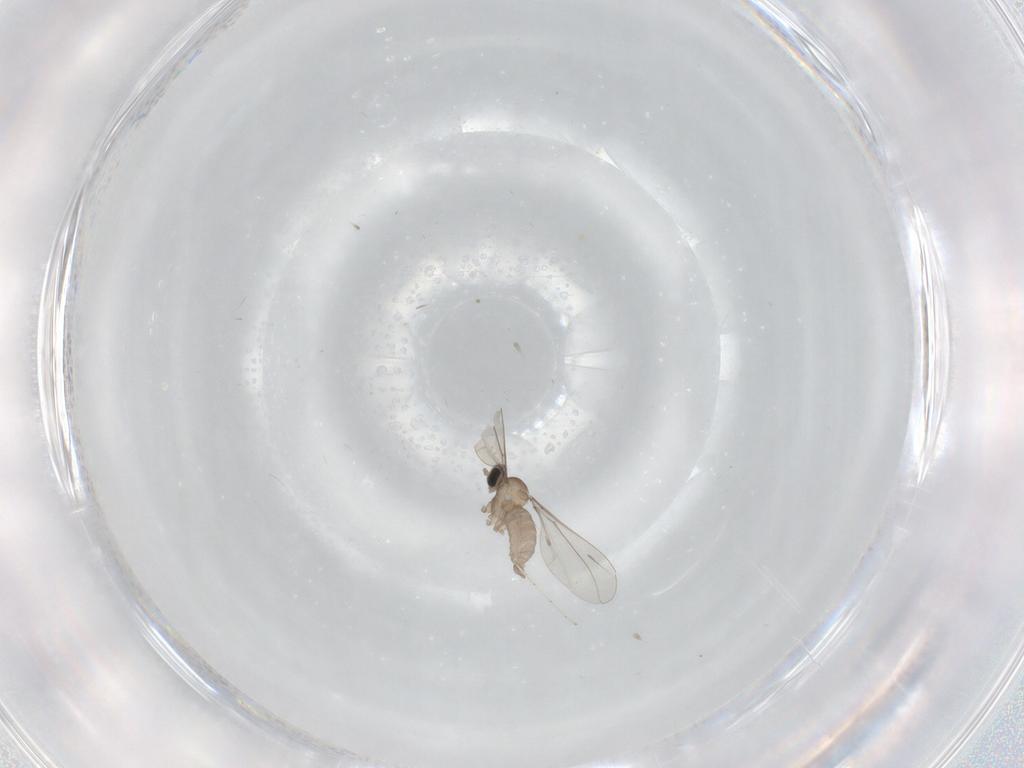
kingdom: Animalia
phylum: Arthropoda
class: Insecta
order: Diptera
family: Cecidomyiidae
